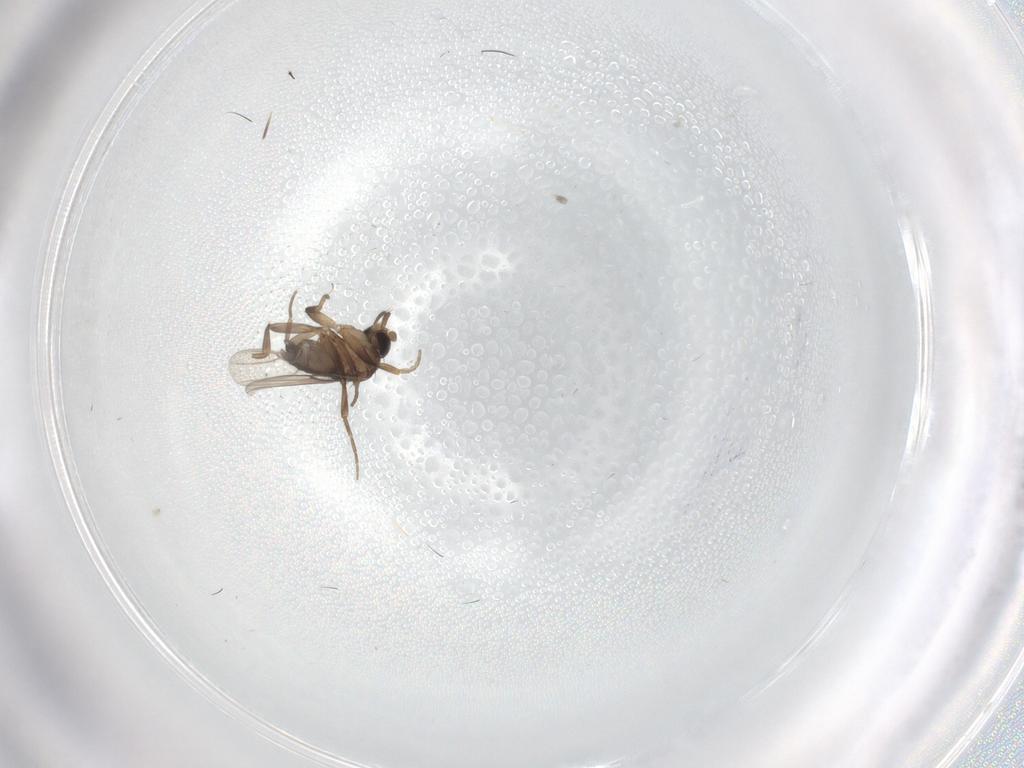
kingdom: Animalia
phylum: Arthropoda
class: Insecta
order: Diptera
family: Phoridae
